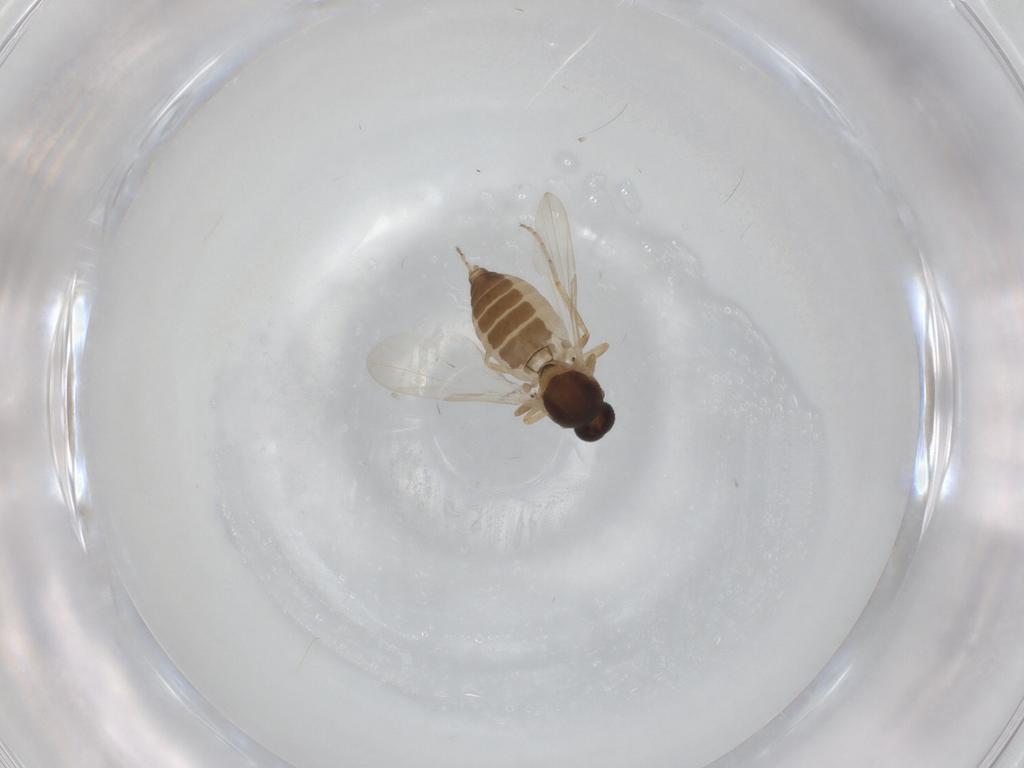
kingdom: Animalia
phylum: Arthropoda
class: Insecta
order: Diptera
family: Ceratopogonidae
